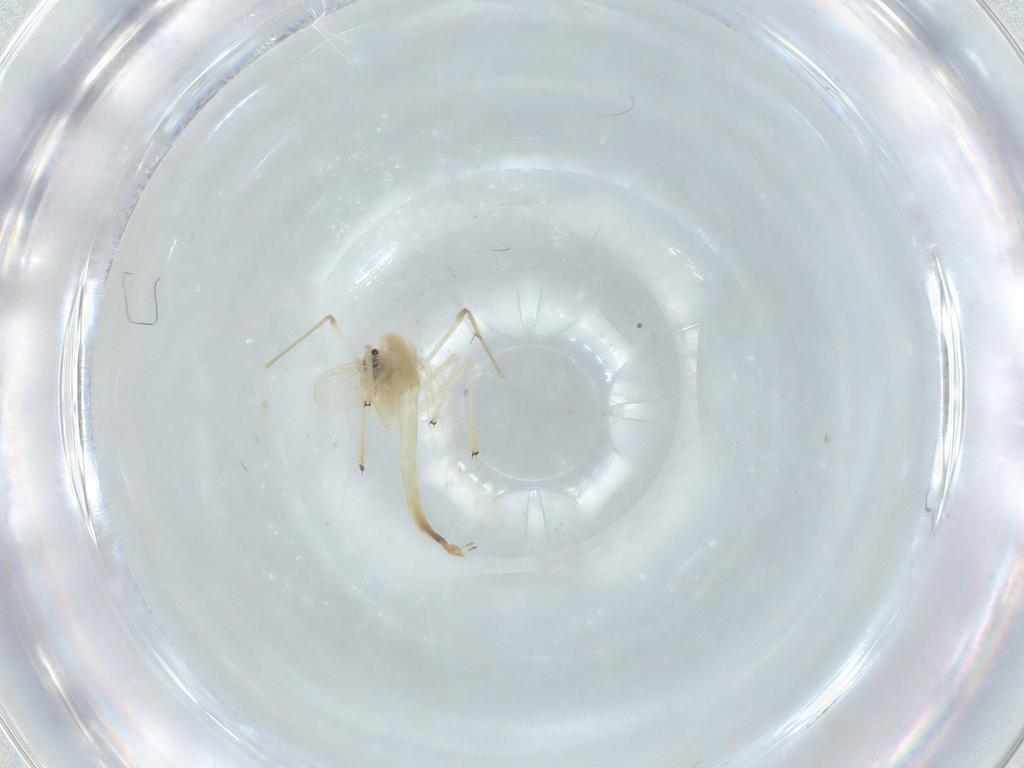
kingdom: Animalia
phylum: Arthropoda
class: Insecta
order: Diptera
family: Chironomidae
